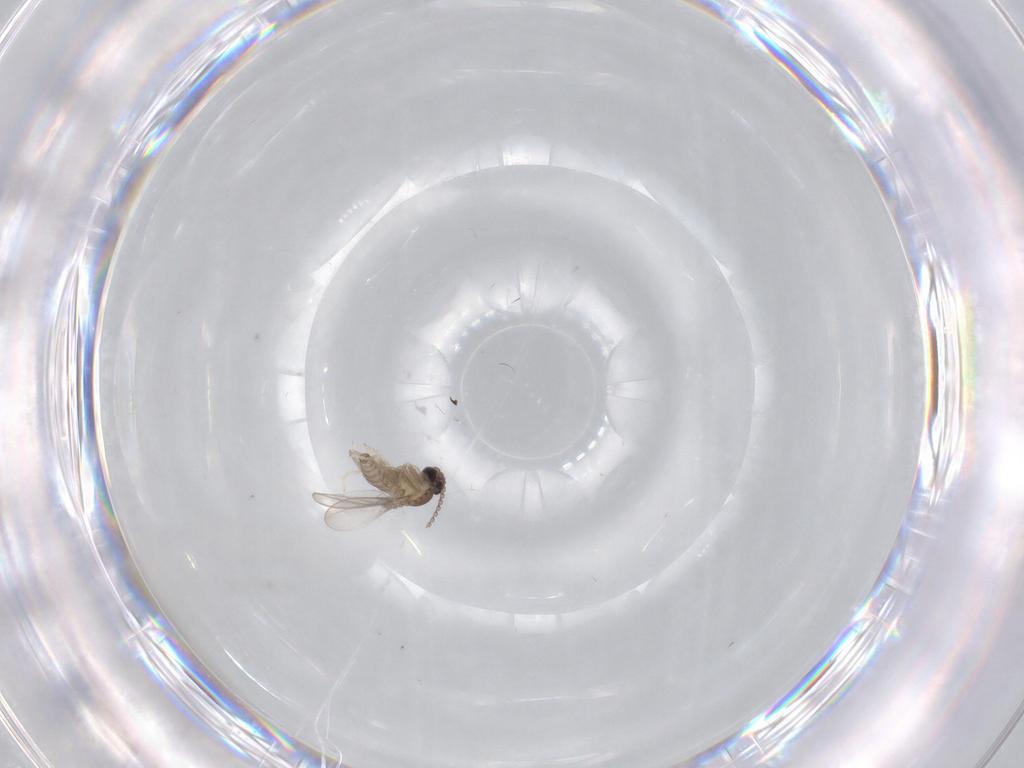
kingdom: Animalia
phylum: Arthropoda
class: Insecta
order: Diptera
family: Cecidomyiidae
